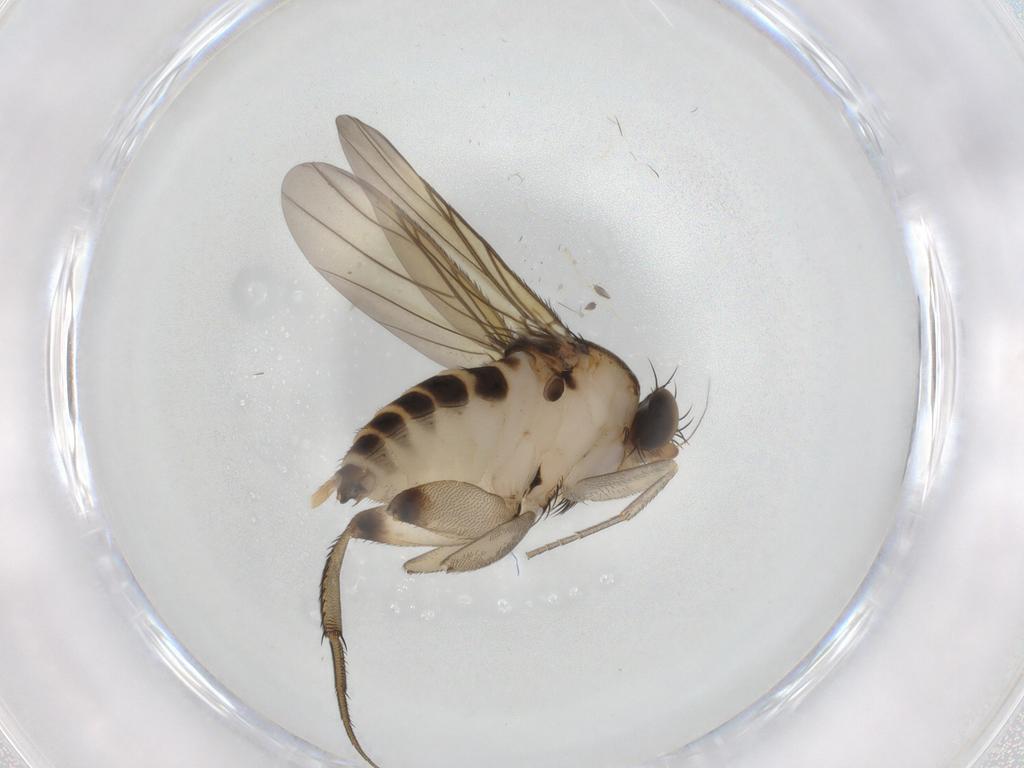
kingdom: Animalia
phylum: Arthropoda
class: Insecta
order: Diptera
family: Phoridae
